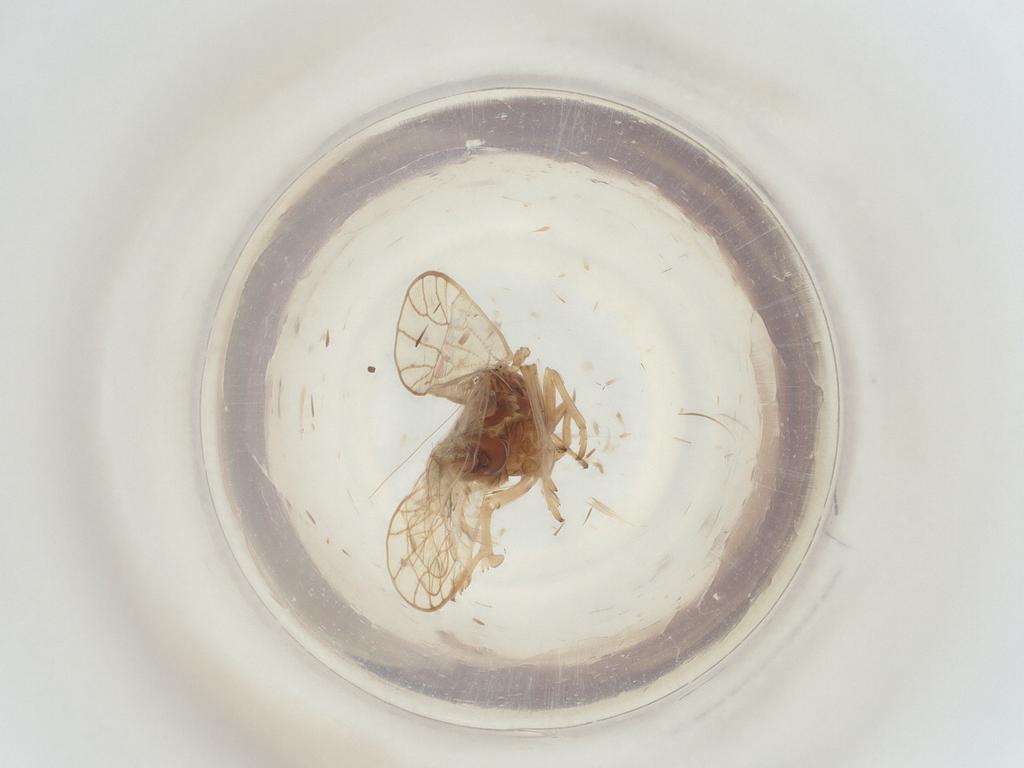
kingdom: Animalia
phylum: Arthropoda
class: Insecta
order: Hemiptera
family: Delphacidae
